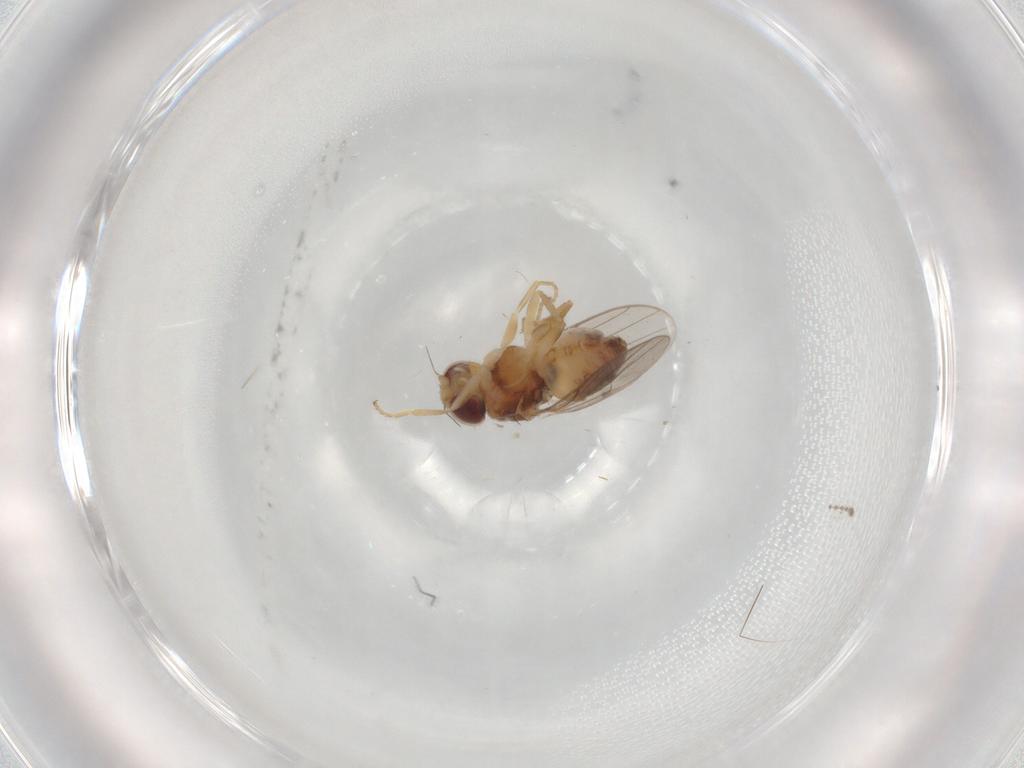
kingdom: Animalia
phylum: Arthropoda
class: Insecta
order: Diptera
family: Chloropidae
